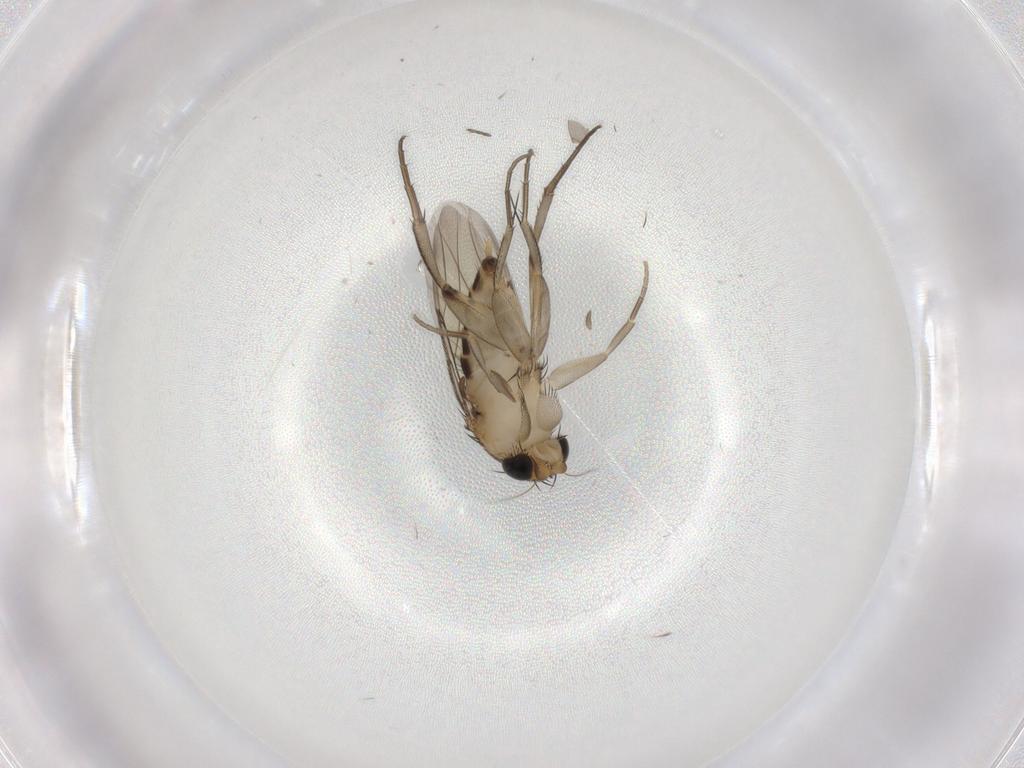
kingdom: Animalia
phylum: Arthropoda
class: Insecta
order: Diptera
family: Phoridae
